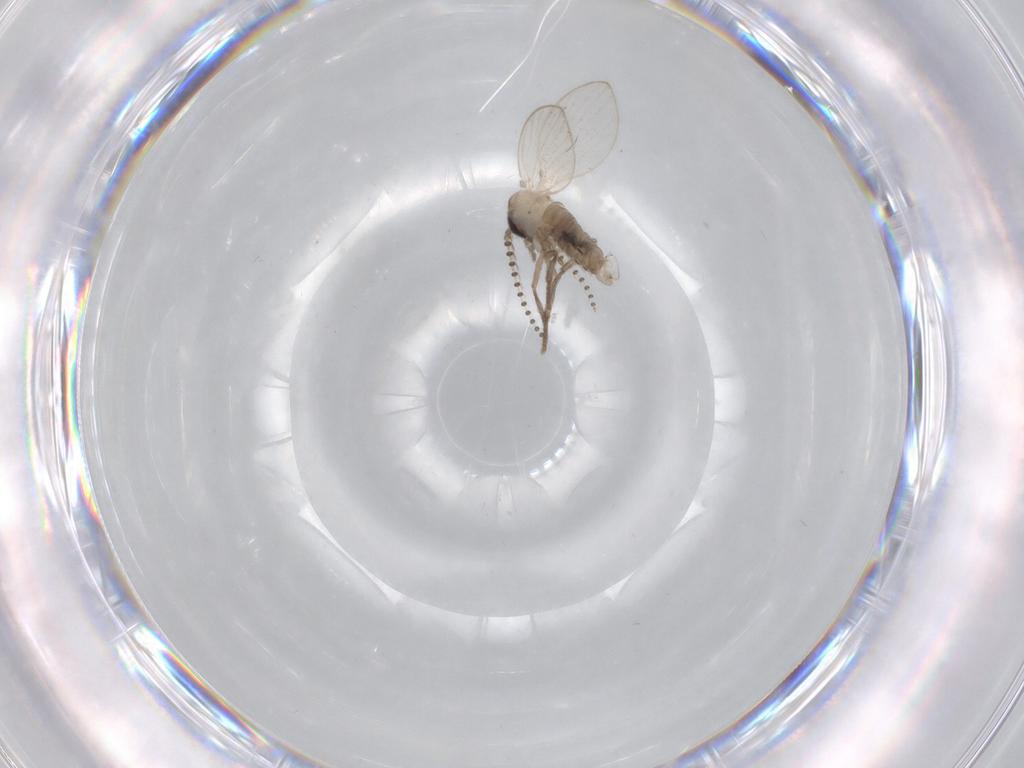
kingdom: Animalia
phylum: Arthropoda
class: Insecta
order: Diptera
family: Psychodidae
